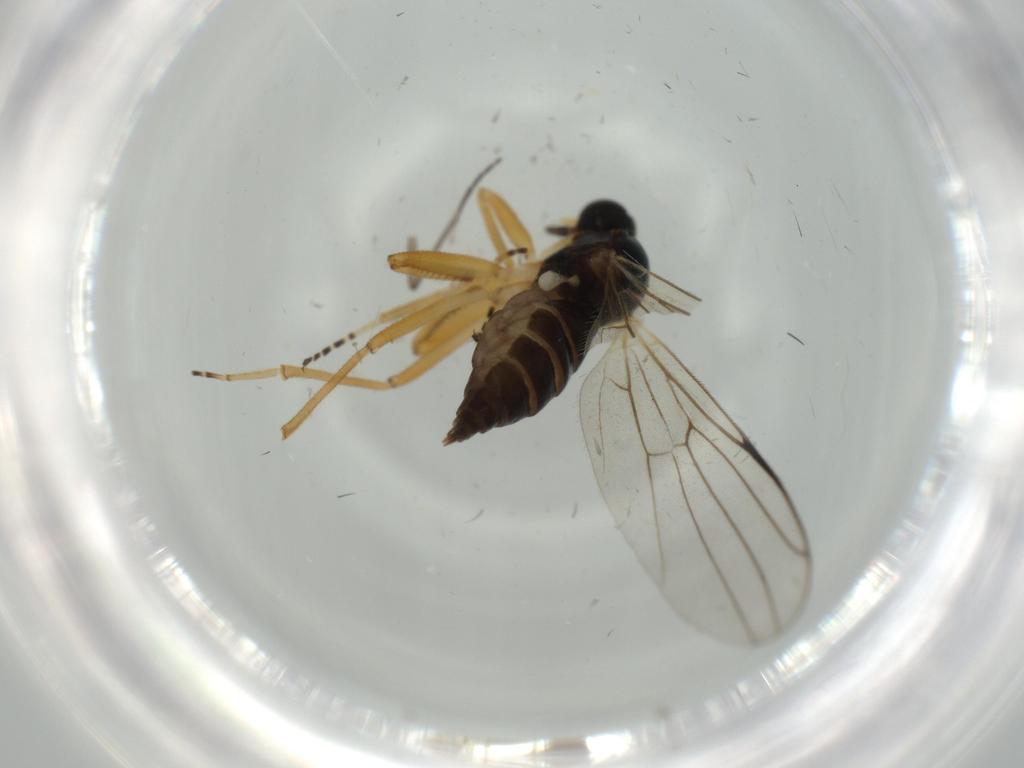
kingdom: Animalia
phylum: Arthropoda
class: Insecta
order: Diptera
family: Hybotidae
